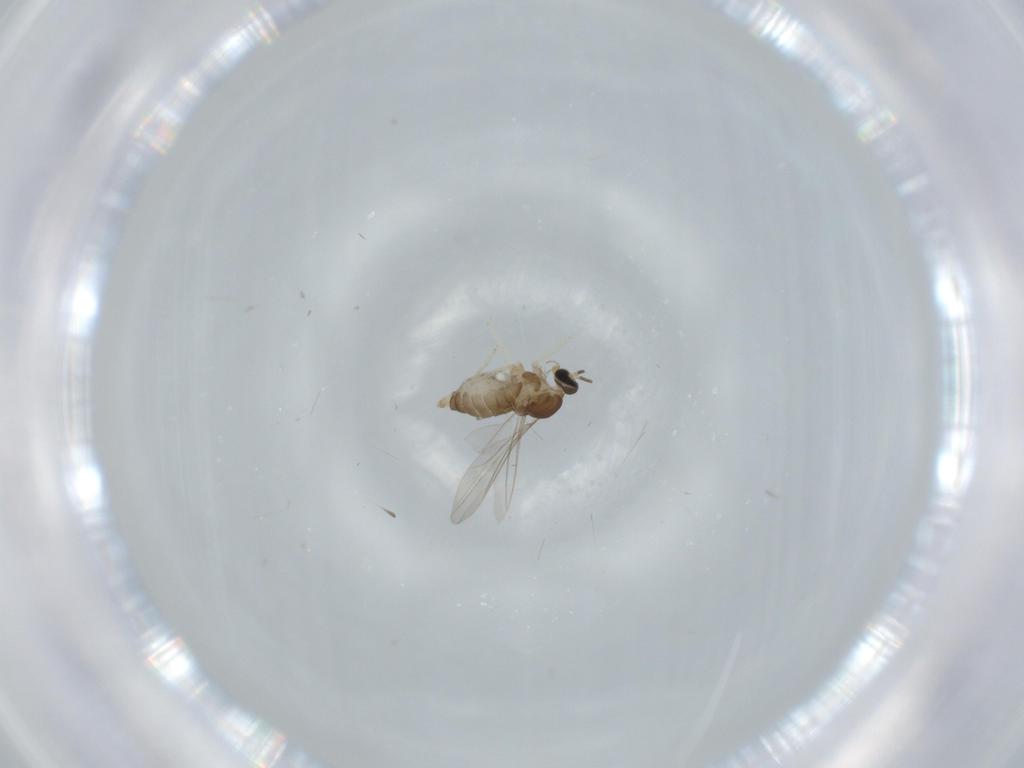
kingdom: Animalia
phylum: Arthropoda
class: Insecta
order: Diptera
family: Cecidomyiidae
